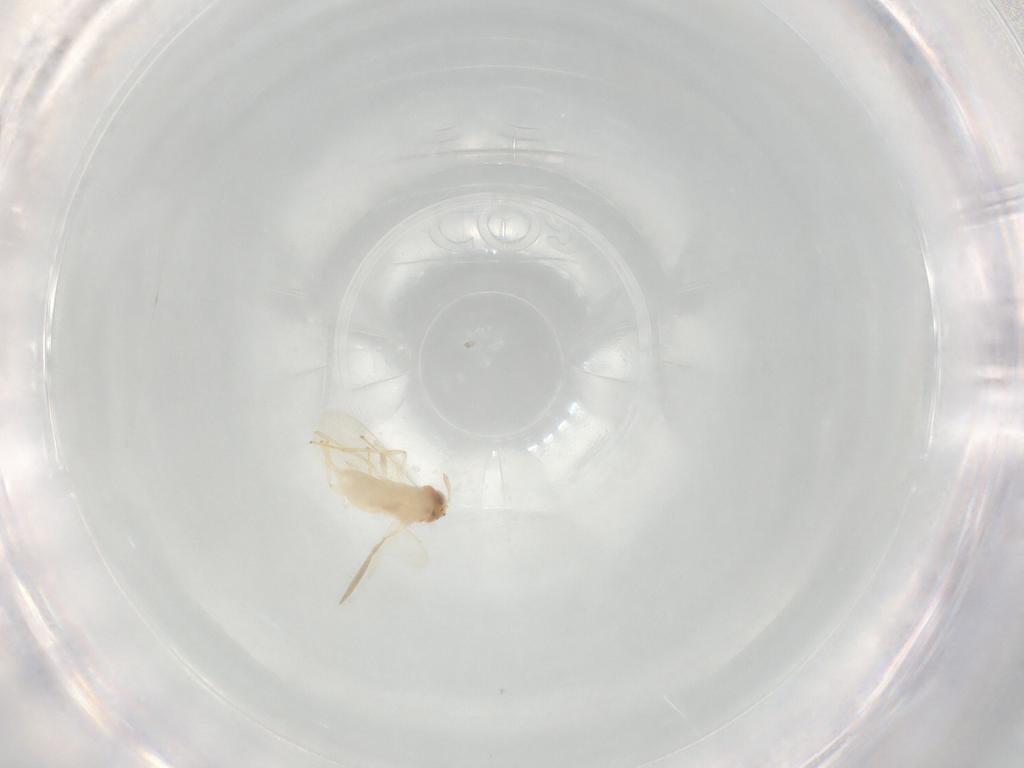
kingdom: Animalia
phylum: Arthropoda
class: Insecta
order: Hymenoptera
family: Aphelinidae
